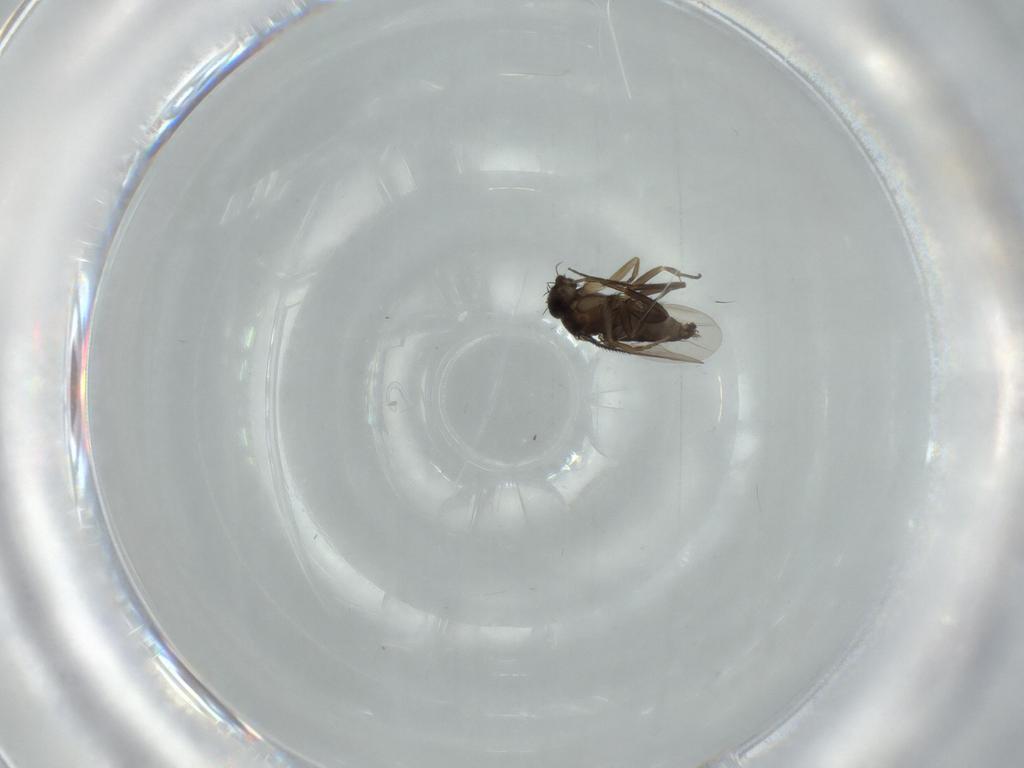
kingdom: Animalia
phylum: Arthropoda
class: Insecta
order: Diptera
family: Phoridae
